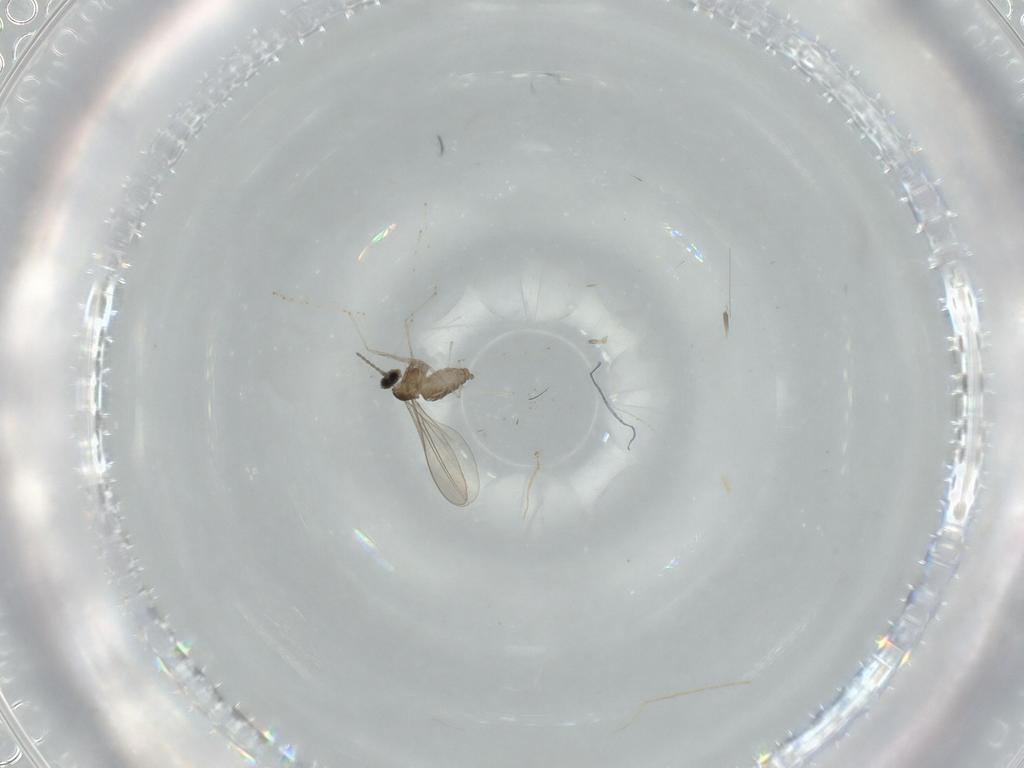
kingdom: Animalia
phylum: Arthropoda
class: Insecta
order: Diptera
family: Cecidomyiidae
